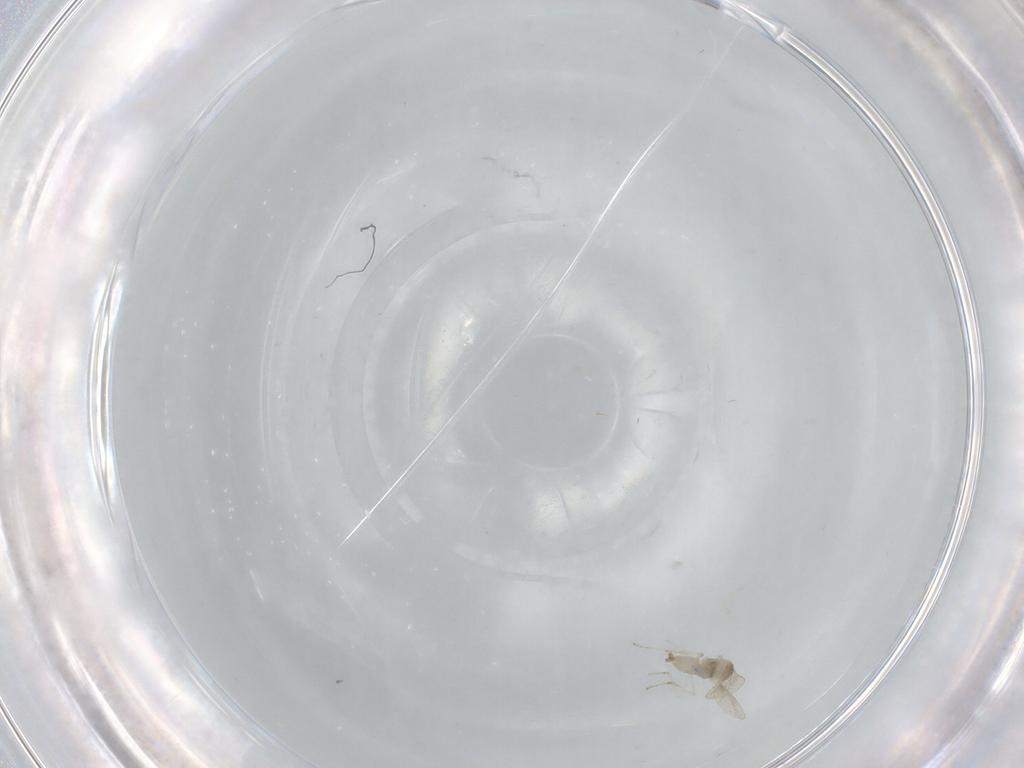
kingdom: Animalia
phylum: Arthropoda
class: Insecta
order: Diptera
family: Cecidomyiidae
